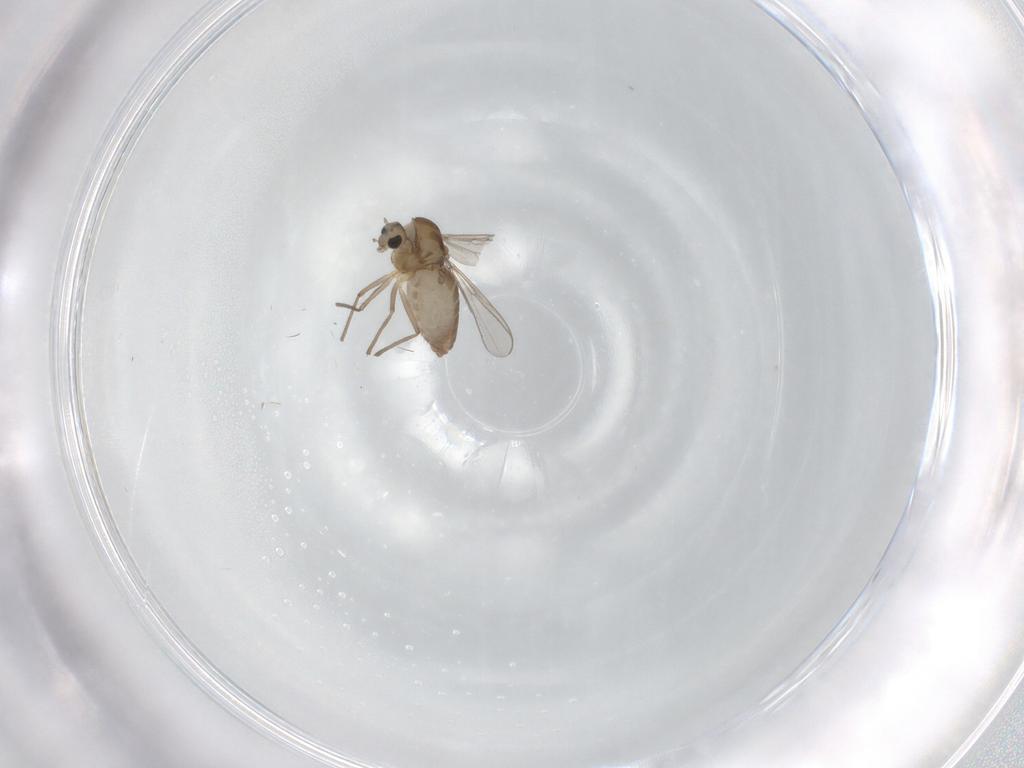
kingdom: Animalia
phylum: Arthropoda
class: Insecta
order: Diptera
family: Chironomidae
